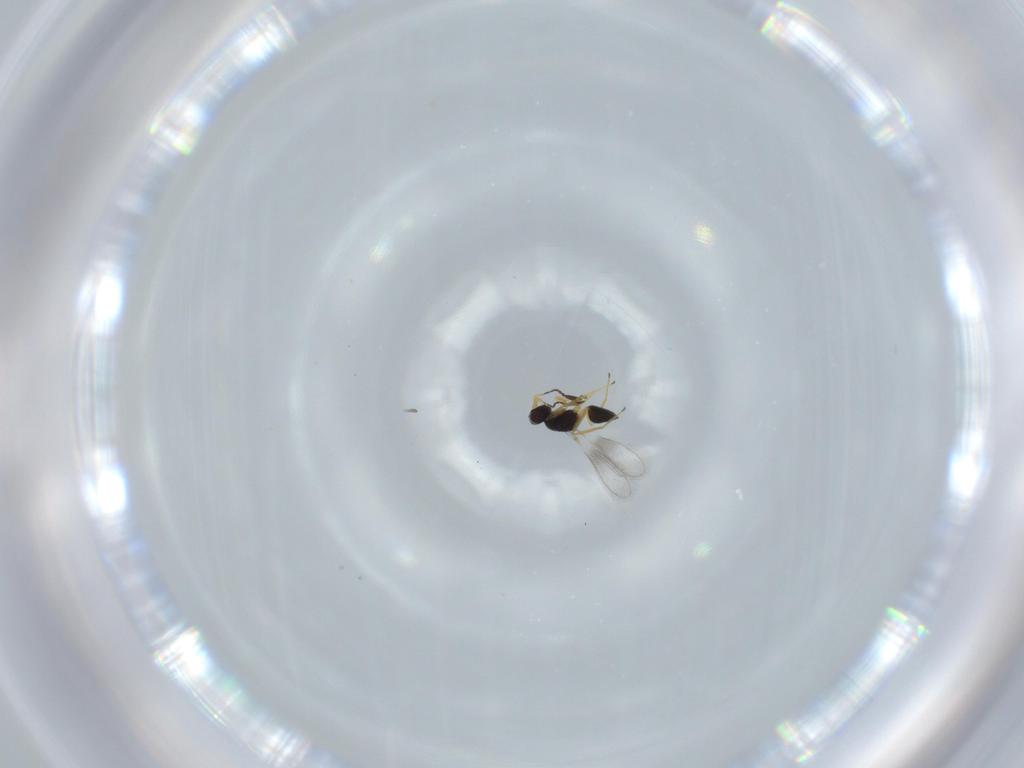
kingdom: Animalia
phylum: Arthropoda
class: Insecta
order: Hymenoptera
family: Mymaridae
